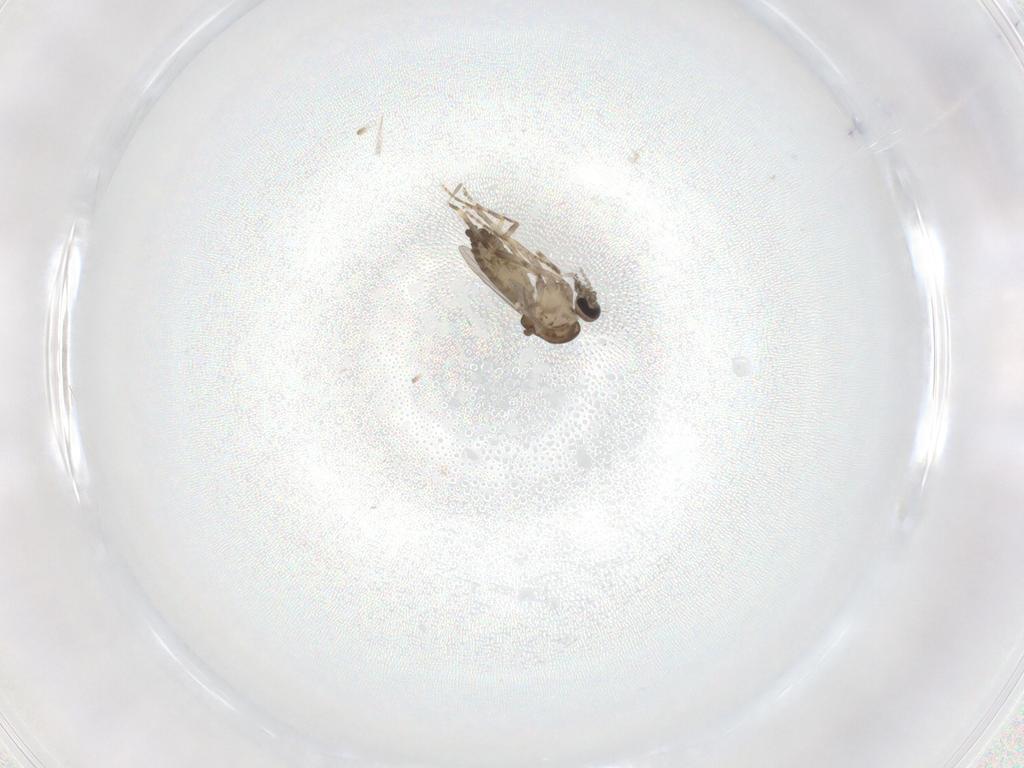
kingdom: Animalia
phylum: Arthropoda
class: Insecta
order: Diptera
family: Ceratopogonidae
